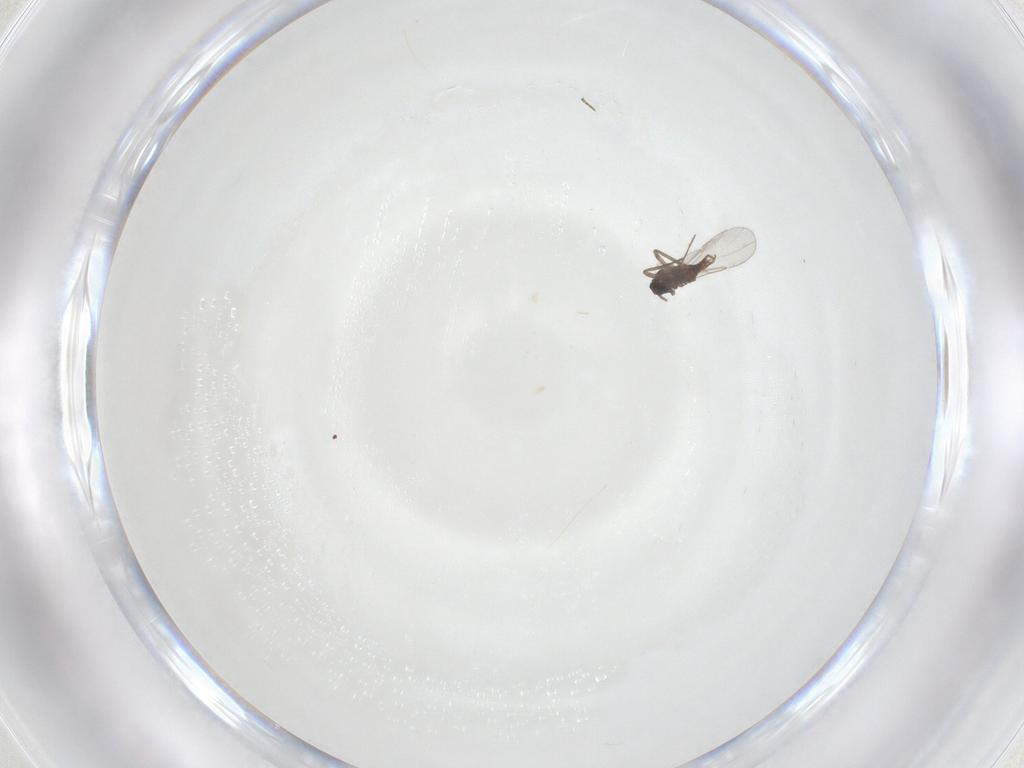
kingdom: Animalia
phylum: Arthropoda
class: Insecta
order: Diptera
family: Cecidomyiidae
